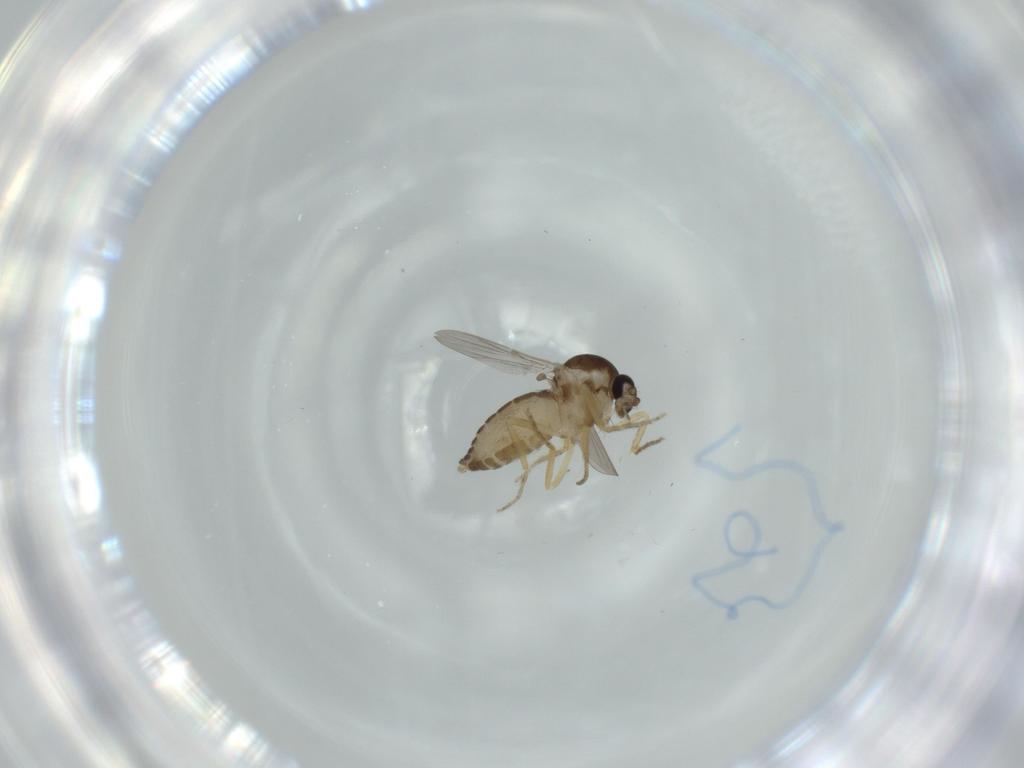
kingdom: Animalia
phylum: Arthropoda
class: Insecta
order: Diptera
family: Ceratopogonidae
